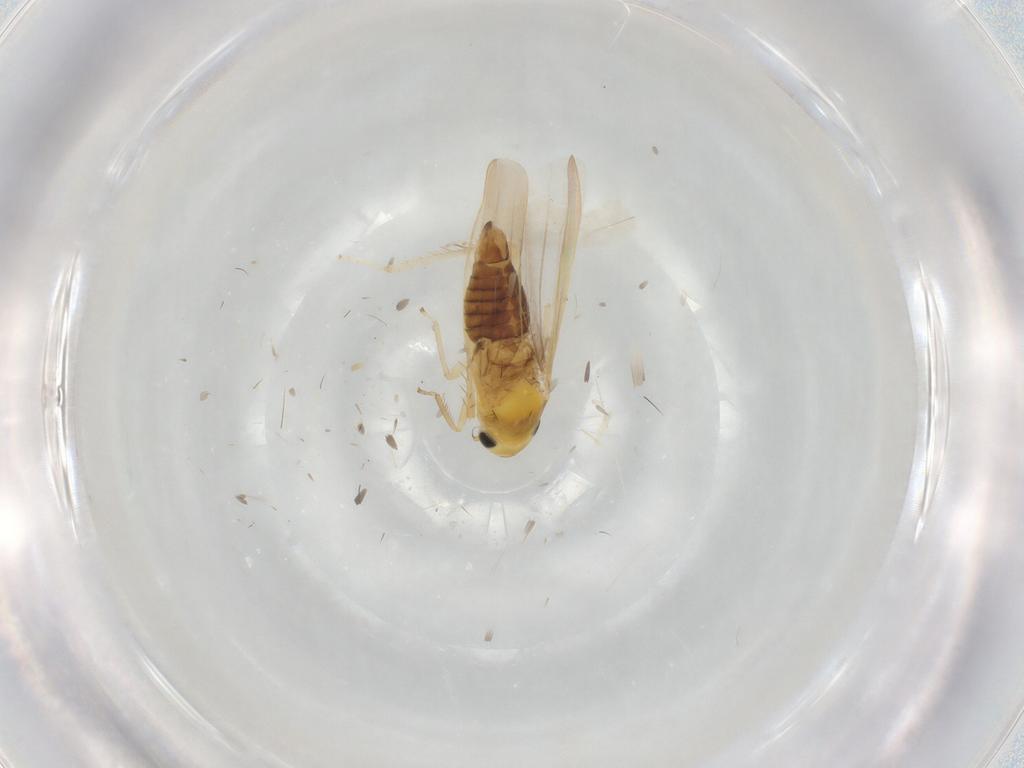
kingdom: Animalia
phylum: Arthropoda
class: Insecta
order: Hemiptera
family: Cicadellidae
